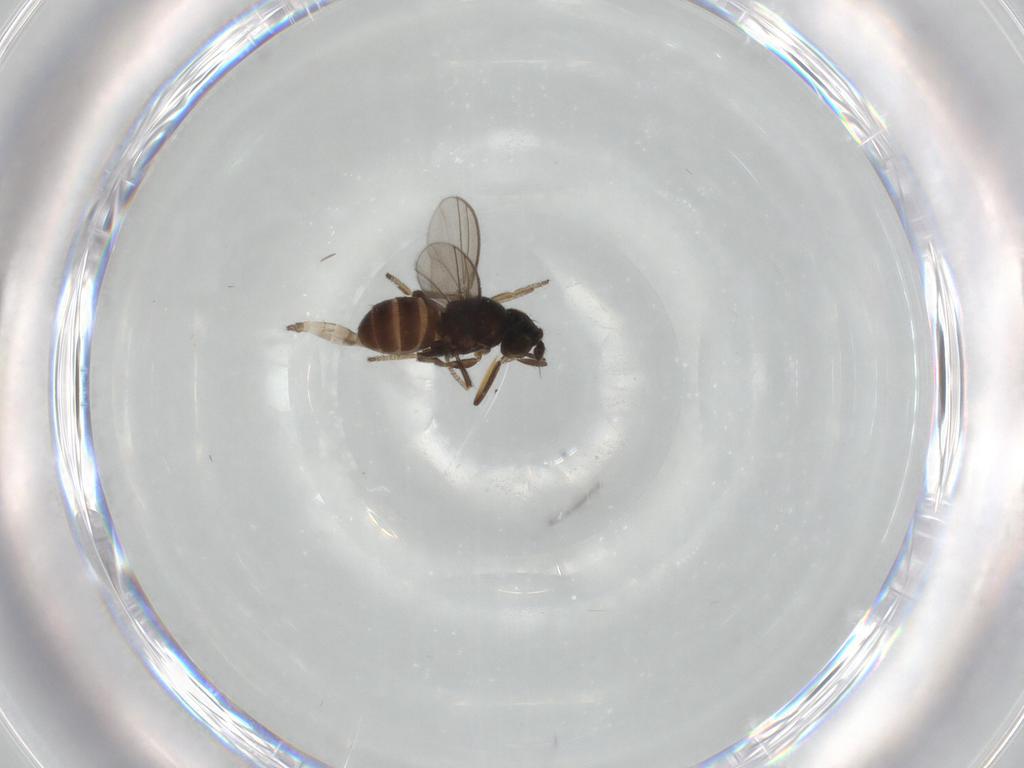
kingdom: Animalia
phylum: Arthropoda
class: Insecta
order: Diptera
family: Milichiidae
